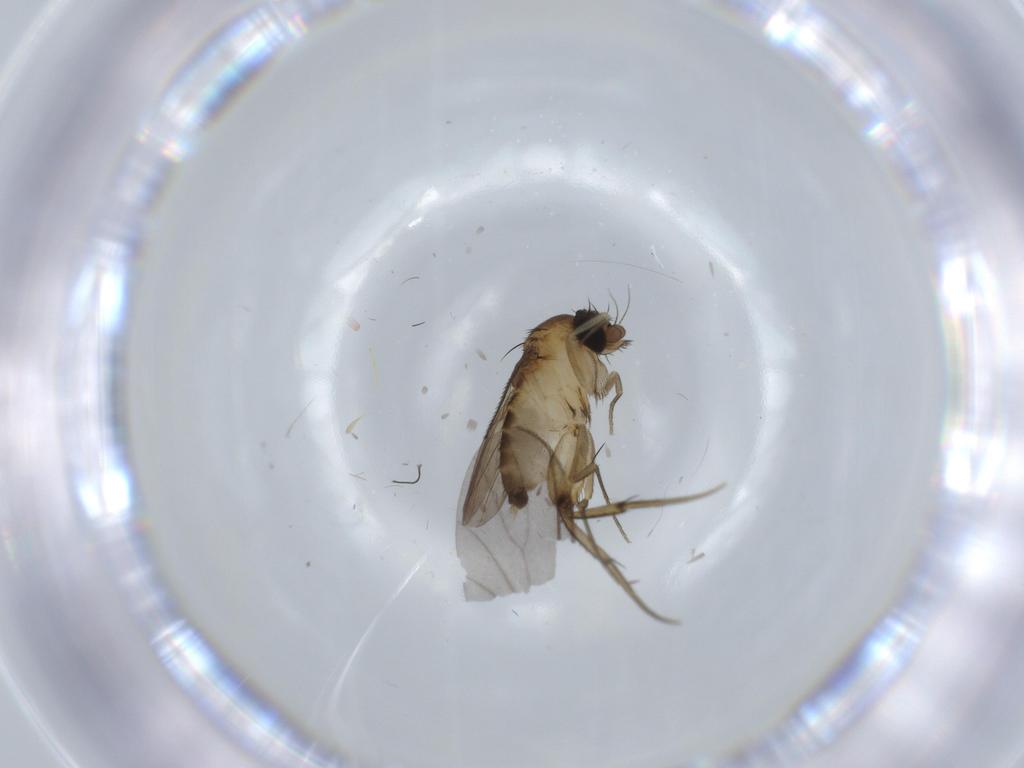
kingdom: Animalia
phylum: Arthropoda
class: Insecta
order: Diptera
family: Phoridae
